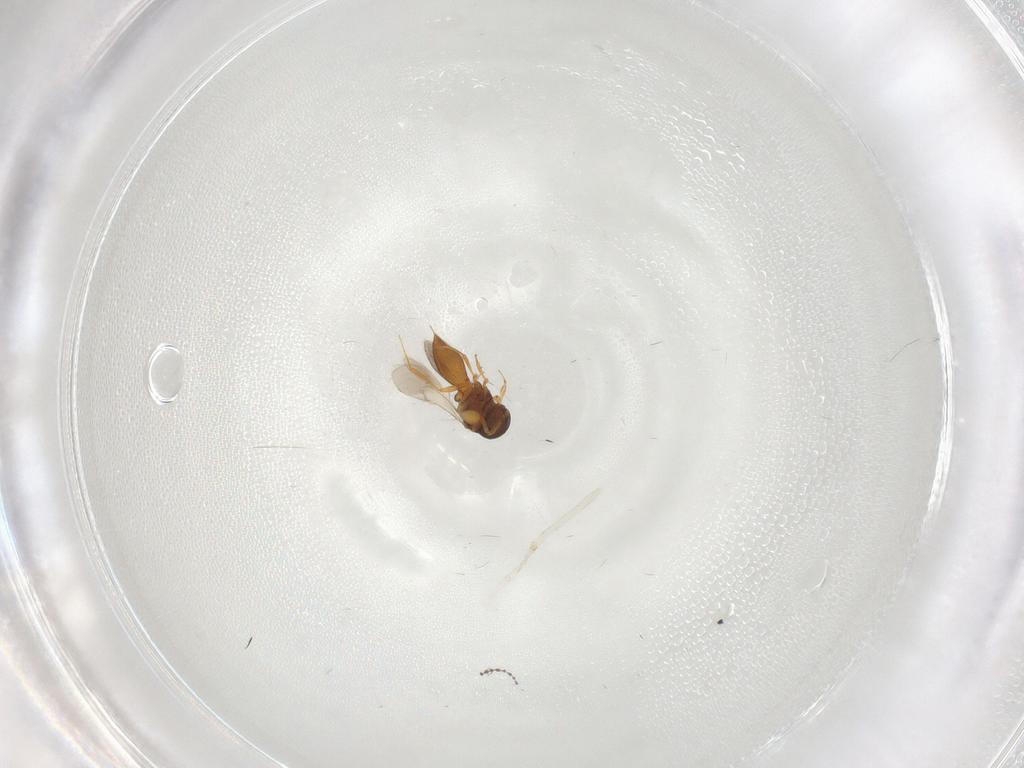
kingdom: Animalia
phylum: Arthropoda
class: Insecta
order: Hymenoptera
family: Scelionidae
